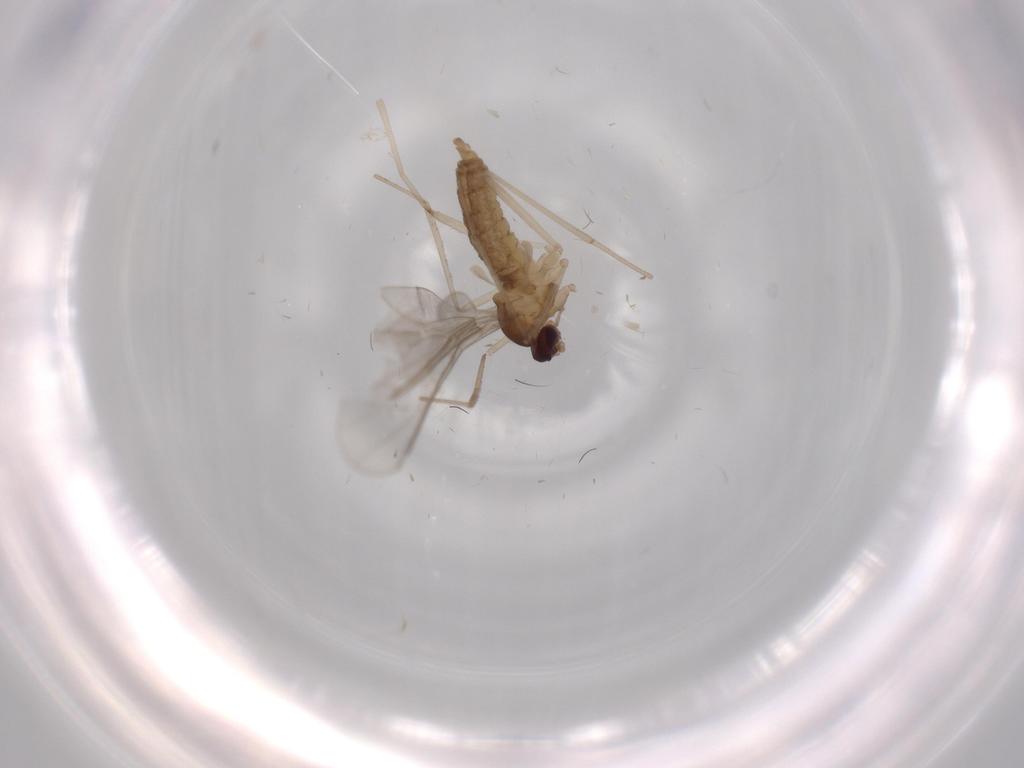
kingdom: Animalia
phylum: Arthropoda
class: Insecta
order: Diptera
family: Cecidomyiidae
